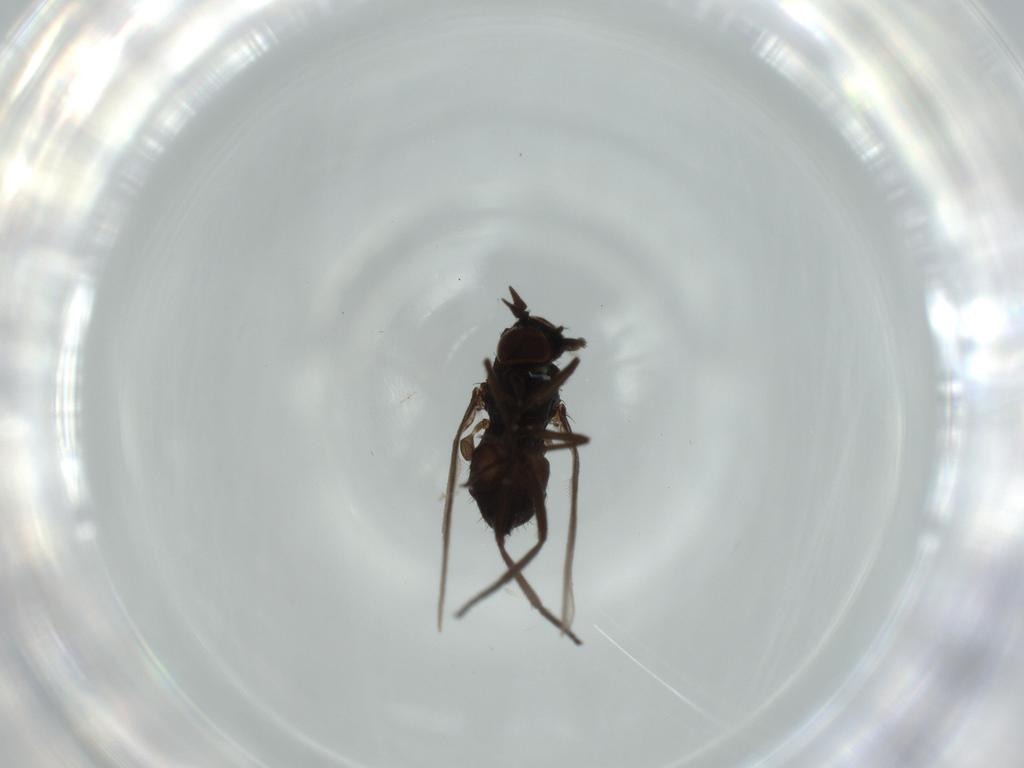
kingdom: Animalia
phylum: Arthropoda
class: Insecta
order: Diptera
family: Dolichopodidae
